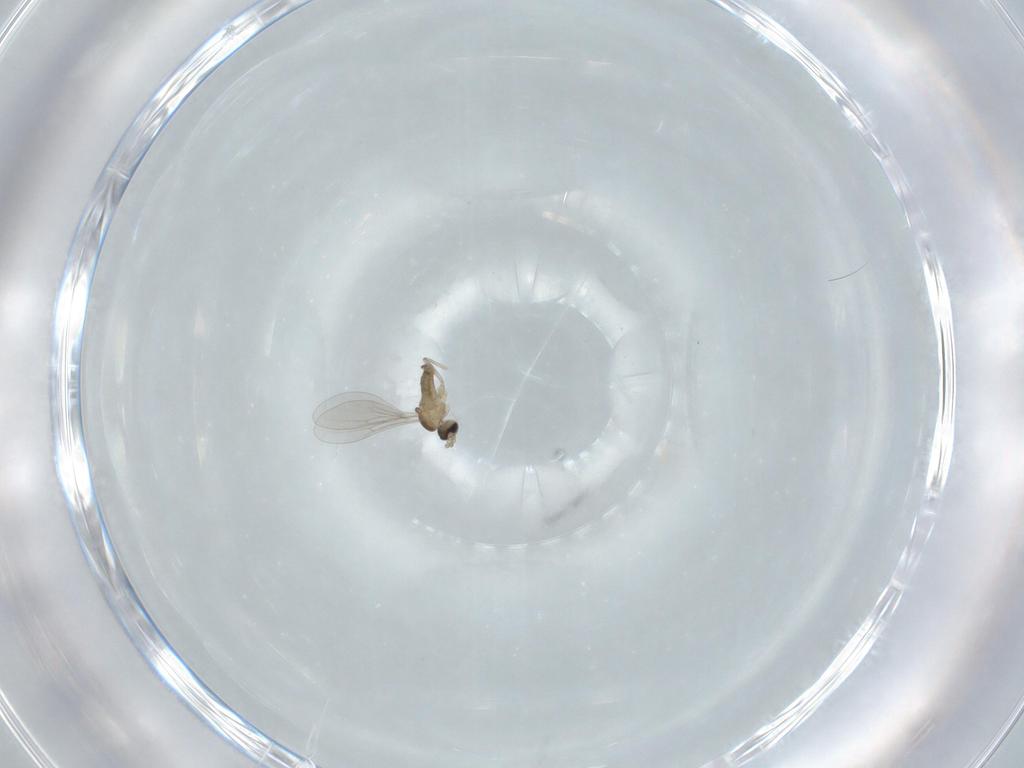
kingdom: Animalia
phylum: Arthropoda
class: Insecta
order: Diptera
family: Cecidomyiidae
